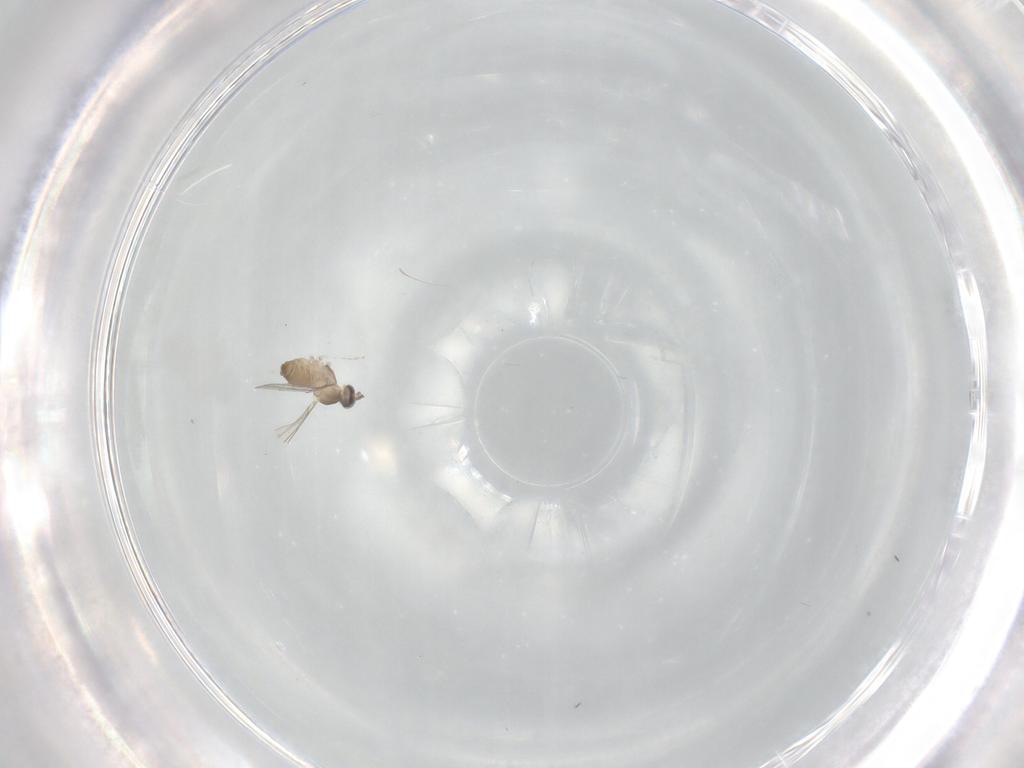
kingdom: Animalia
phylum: Arthropoda
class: Insecta
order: Diptera
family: Cecidomyiidae
